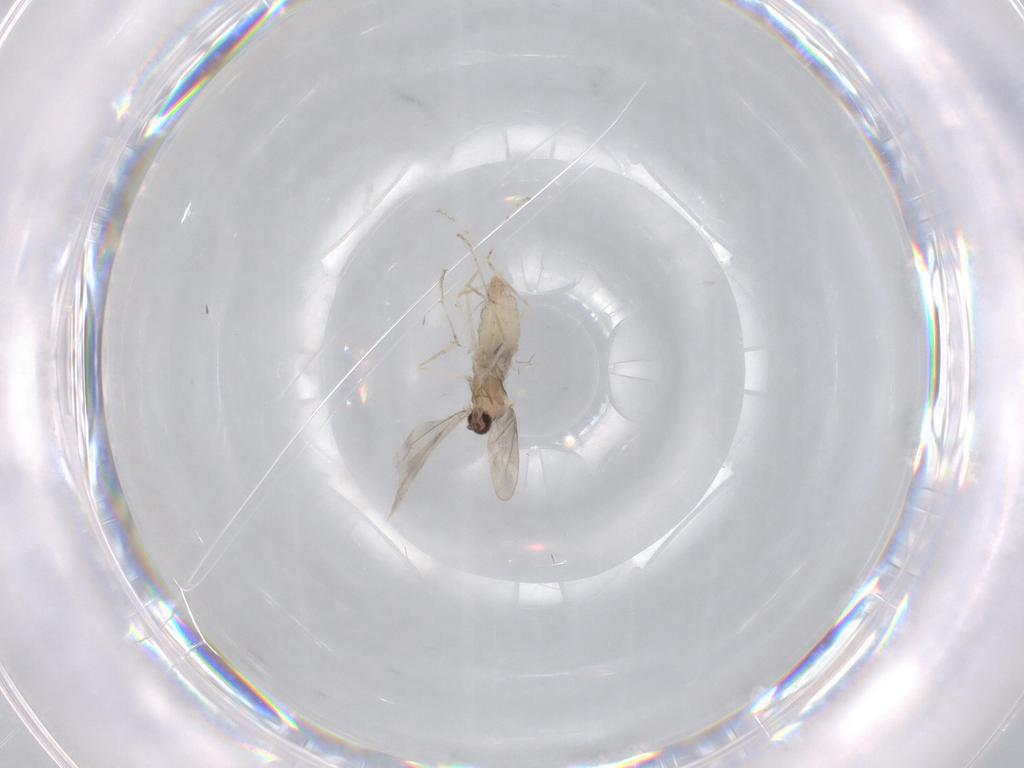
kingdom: Animalia
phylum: Arthropoda
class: Insecta
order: Diptera
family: Cecidomyiidae
